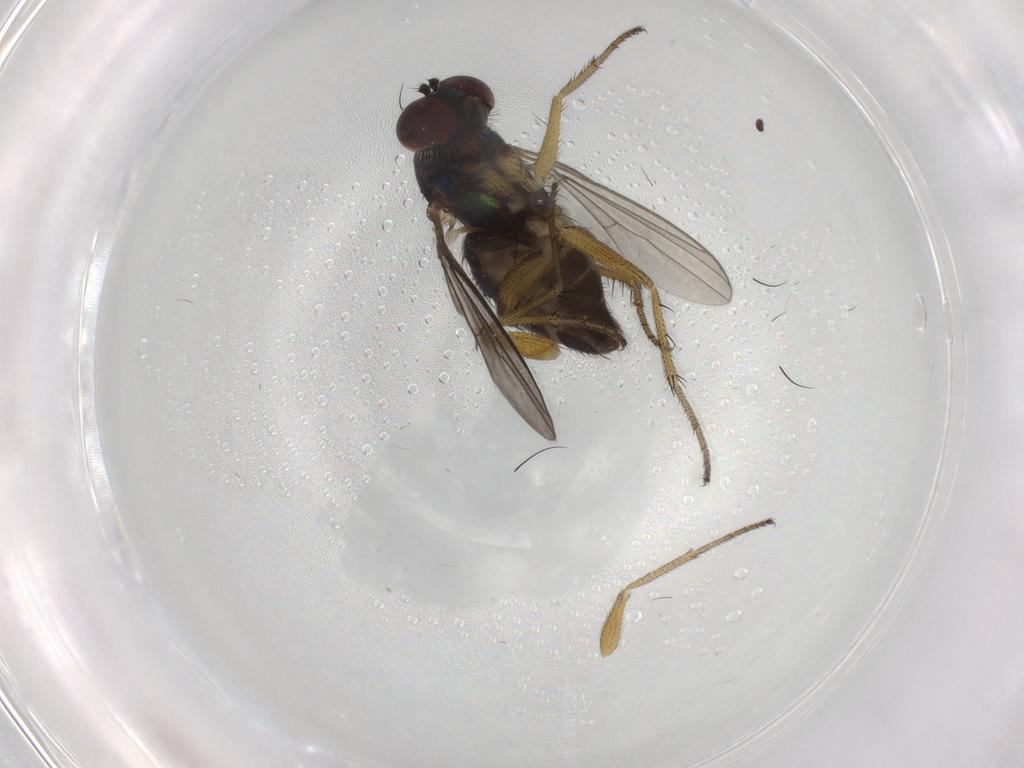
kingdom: Animalia
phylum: Arthropoda
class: Insecta
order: Diptera
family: Dolichopodidae
